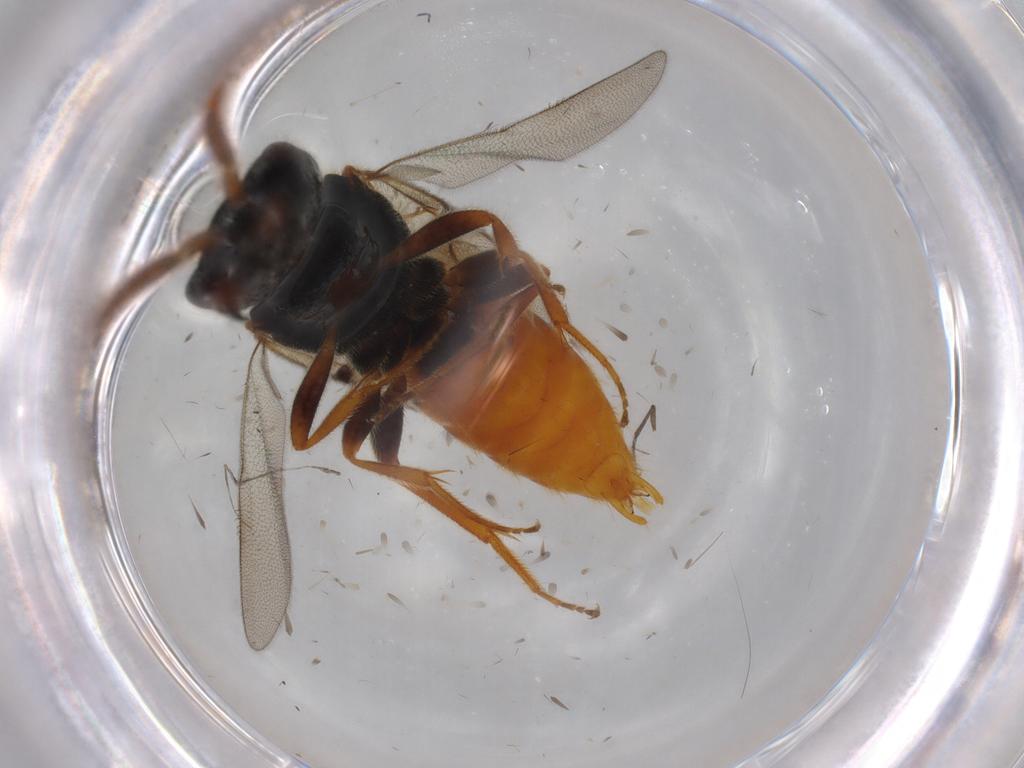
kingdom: Animalia
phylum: Arthropoda
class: Insecta
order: Hymenoptera
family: Bethylidae
